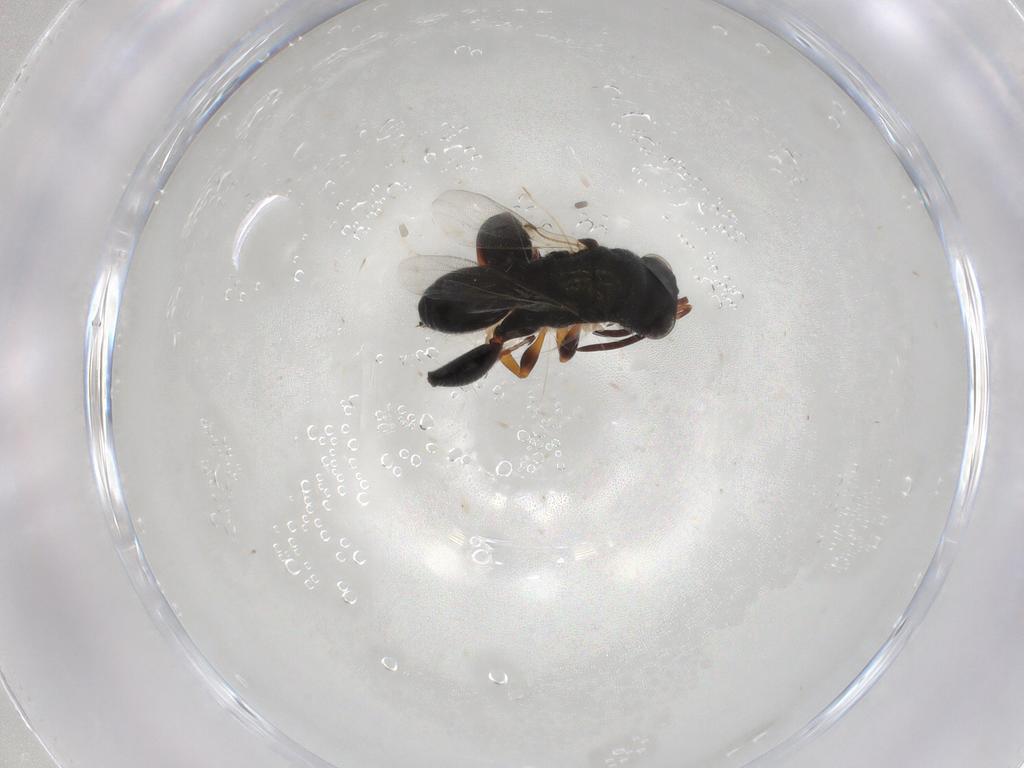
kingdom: Animalia
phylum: Arthropoda
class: Insecta
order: Hymenoptera
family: Chalcididae
